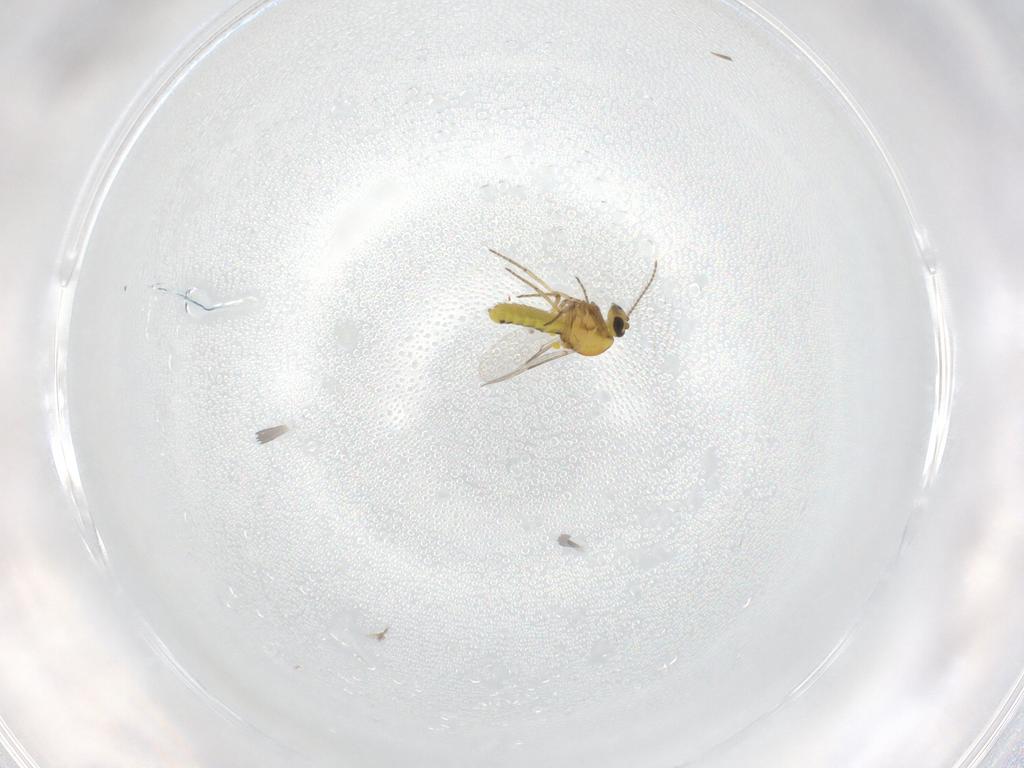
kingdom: Animalia
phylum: Arthropoda
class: Insecta
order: Diptera
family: Ceratopogonidae
